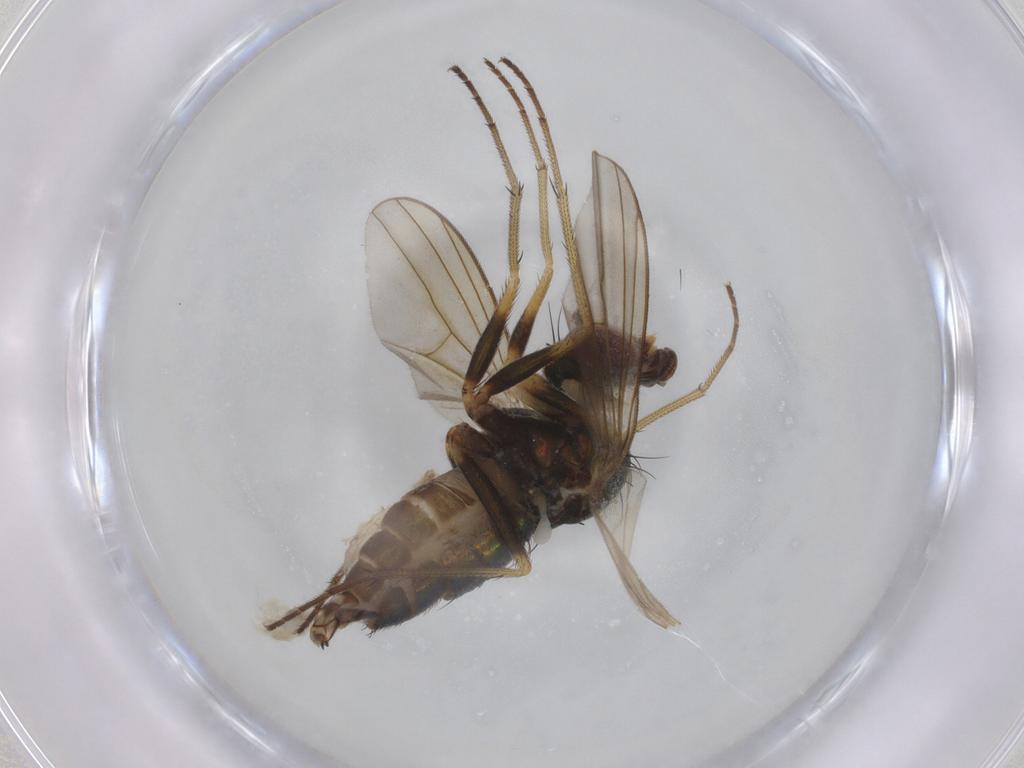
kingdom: Animalia
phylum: Arthropoda
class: Insecta
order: Diptera
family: Dolichopodidae
